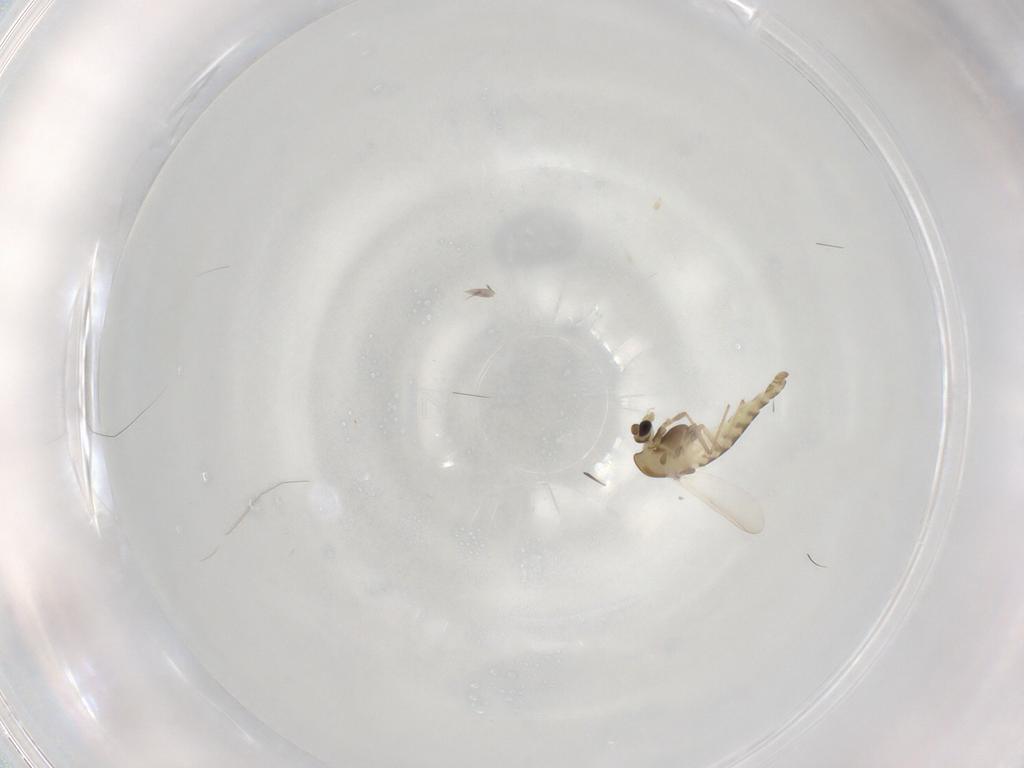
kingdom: Animalia
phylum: Arthropoda
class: Insecta
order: Diptera
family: Chironomidae
